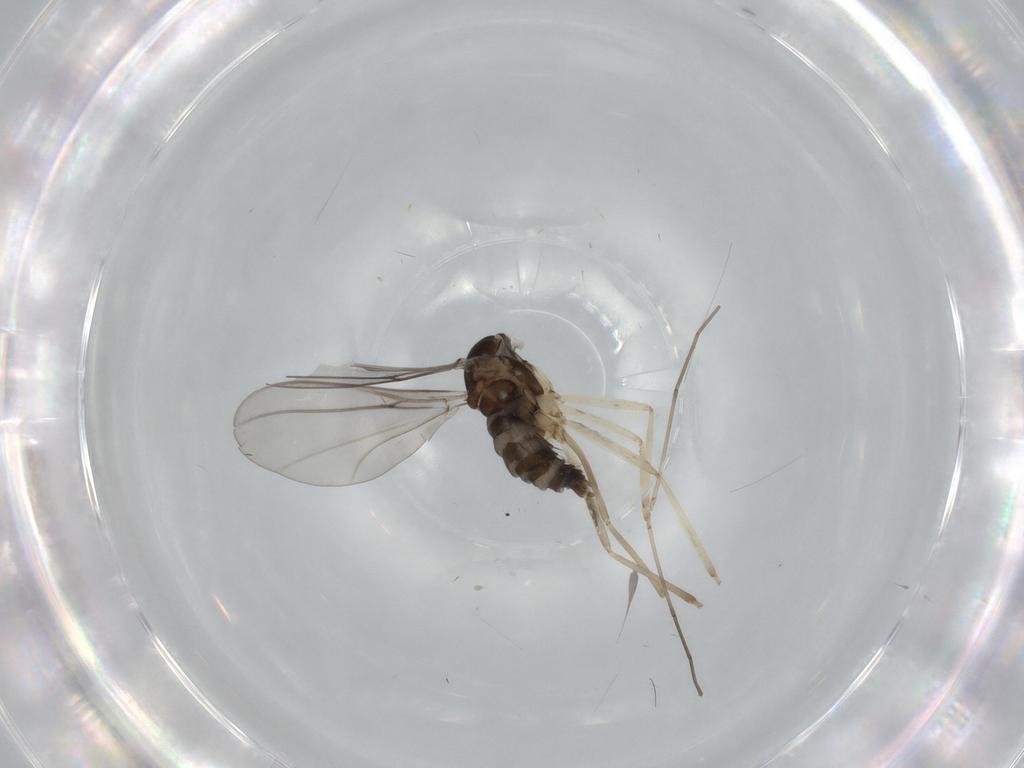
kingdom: Animalia
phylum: Arthropoda
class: Insecta
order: Diptera
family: Cecidomyiidae
